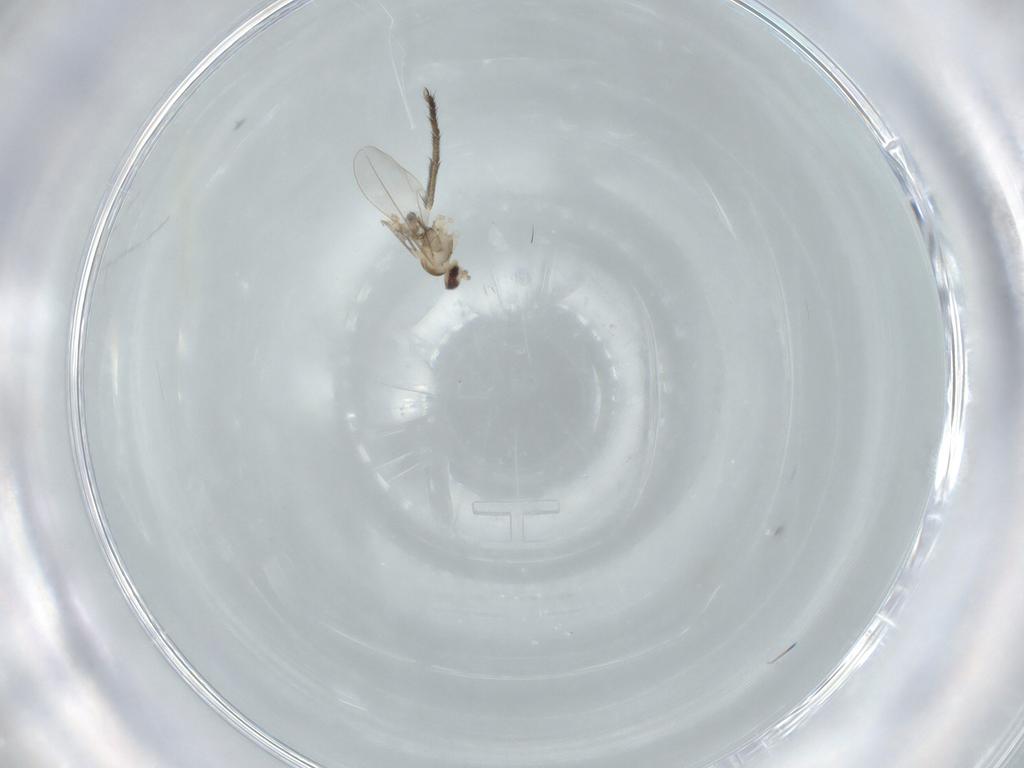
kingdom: Animalia
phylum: Arthropoda
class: Insecta
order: Diptera
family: Cecidomyiidae
